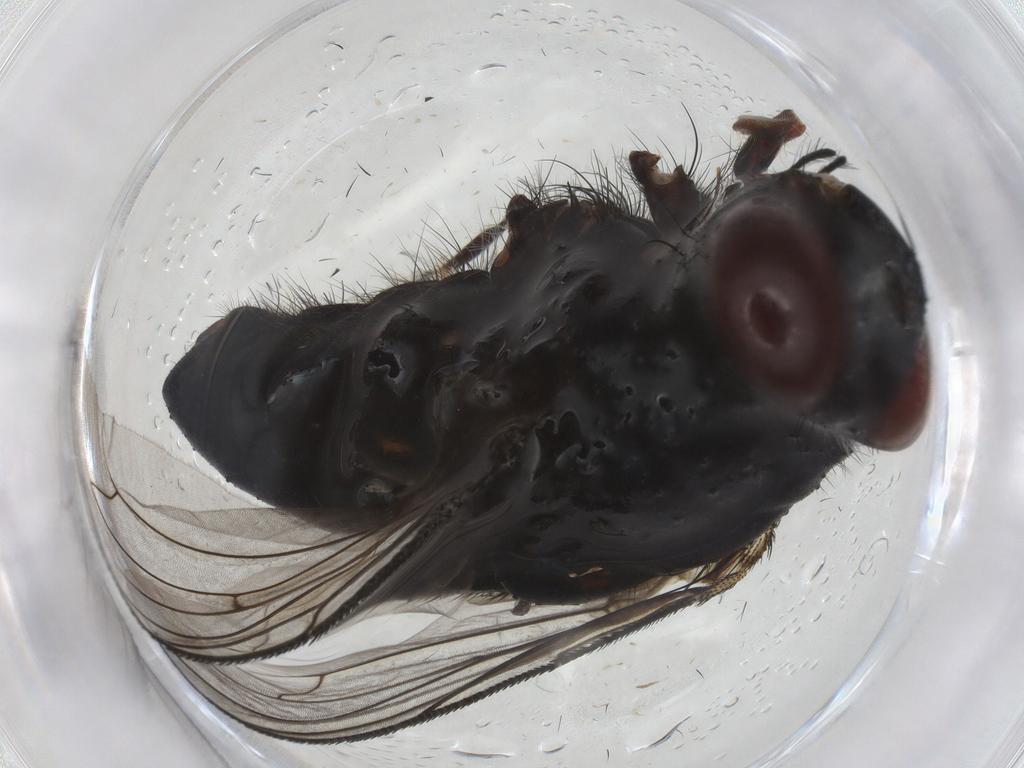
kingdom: Animalia
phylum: Arthropoda
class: Insecta
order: Diptera
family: Tachinidae
